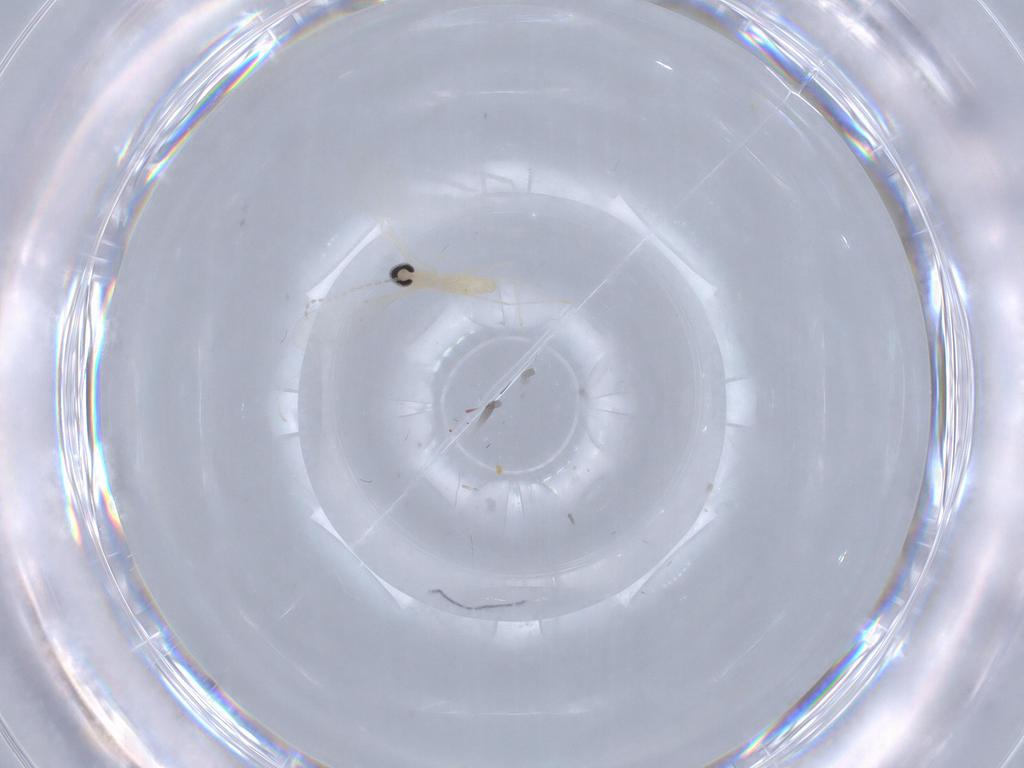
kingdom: Animalia
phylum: Arthropoda
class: Insecta
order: Diptera
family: Cecidomyiidae
